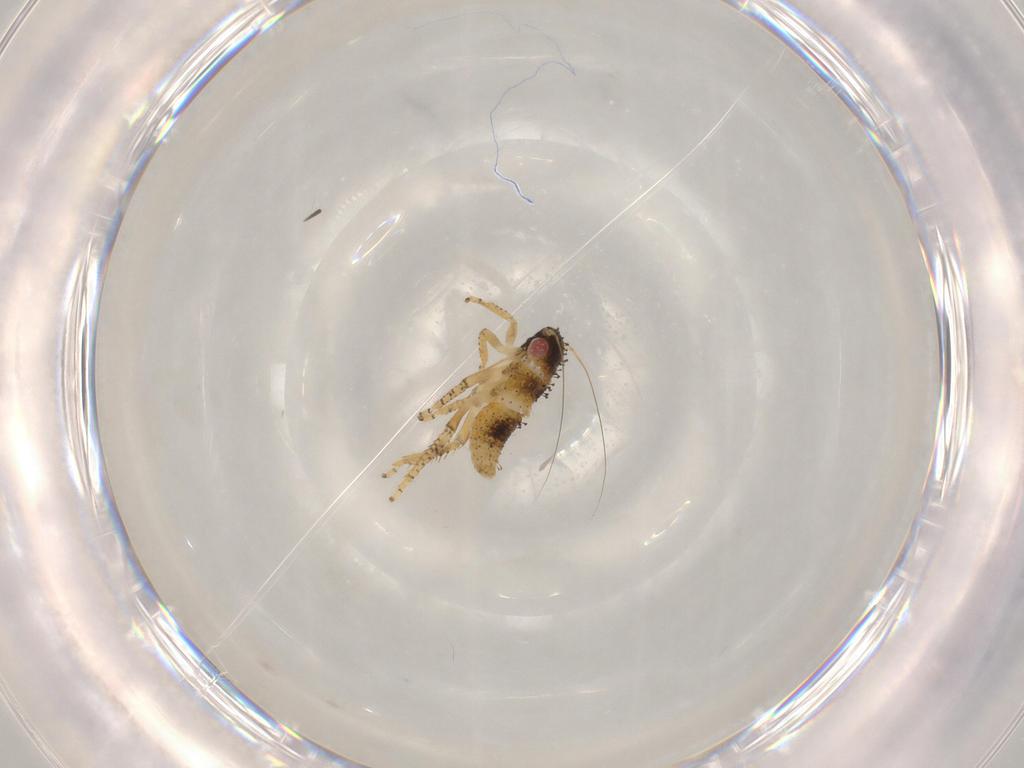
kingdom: Animalia
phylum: Arthropoda
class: Insecta
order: Hemiptera
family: Cicadellidae
